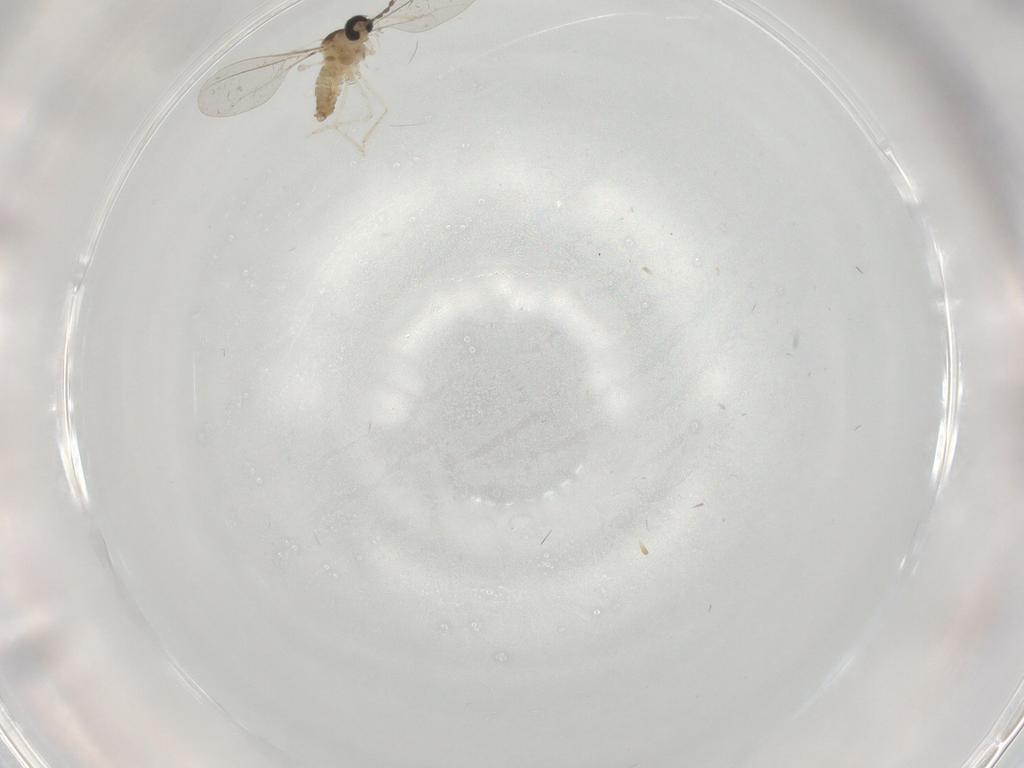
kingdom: Animalia
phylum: Arthropoda
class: Insecta
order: Diptera
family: Cecidomyiidae
